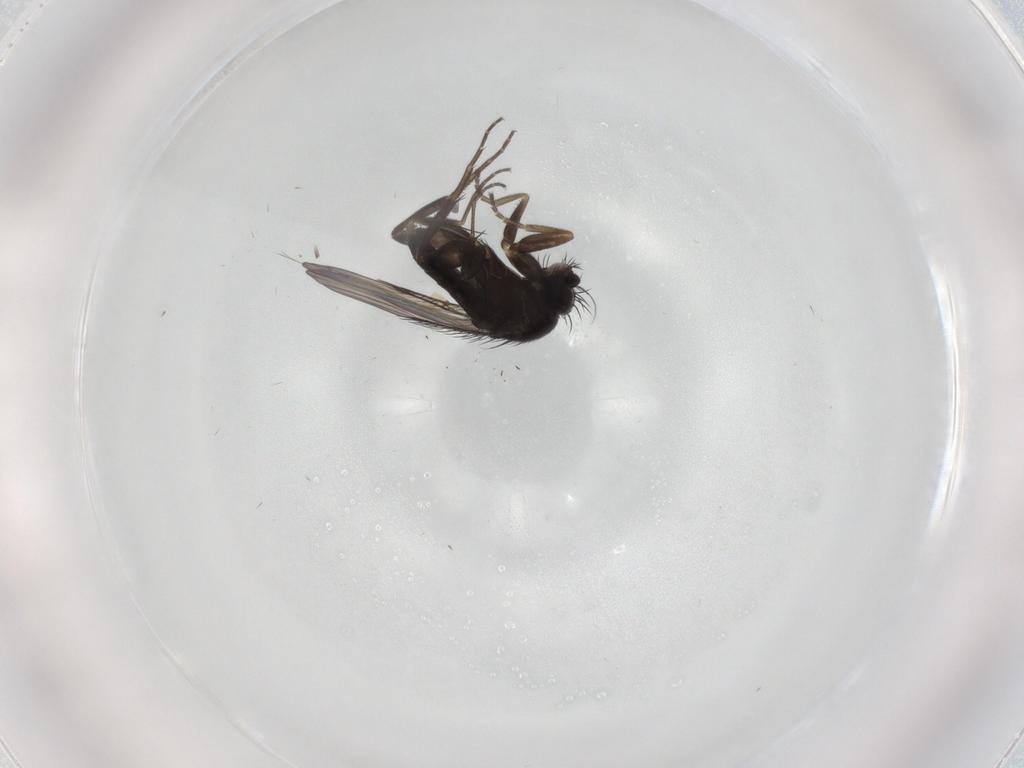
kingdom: Animalia
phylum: Arthropoda
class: Insecta
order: Diptera
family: Phoridae
